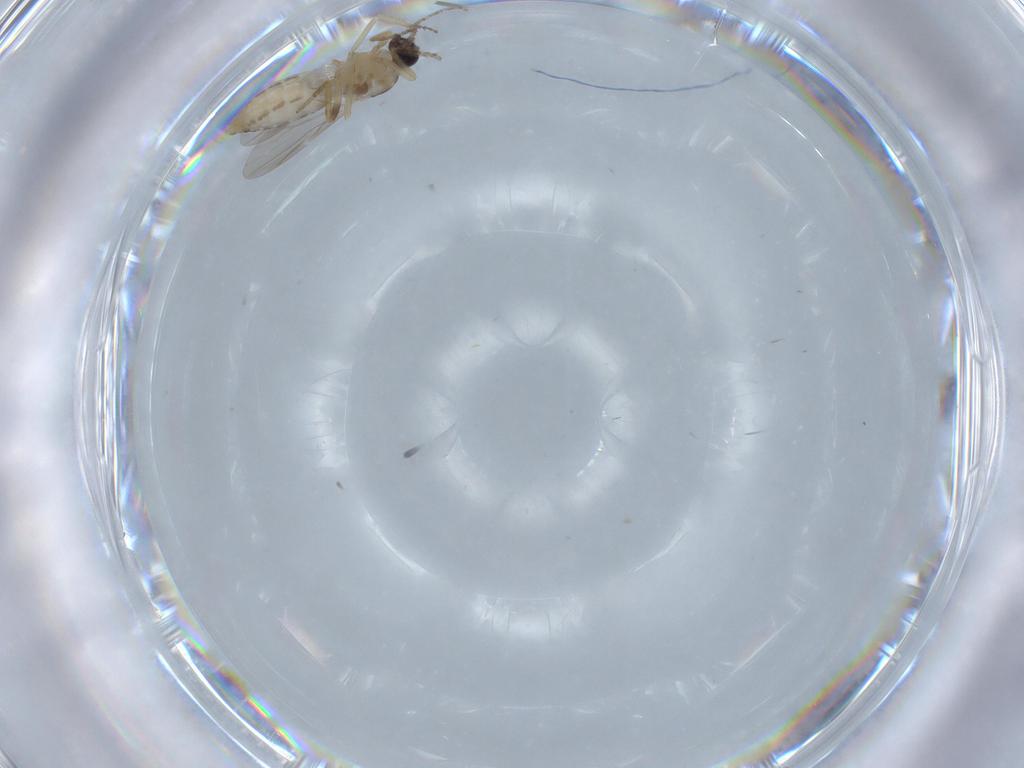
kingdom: Animalia
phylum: Arthropoda
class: Insecta
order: Diptera
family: Ceratopogonidae
